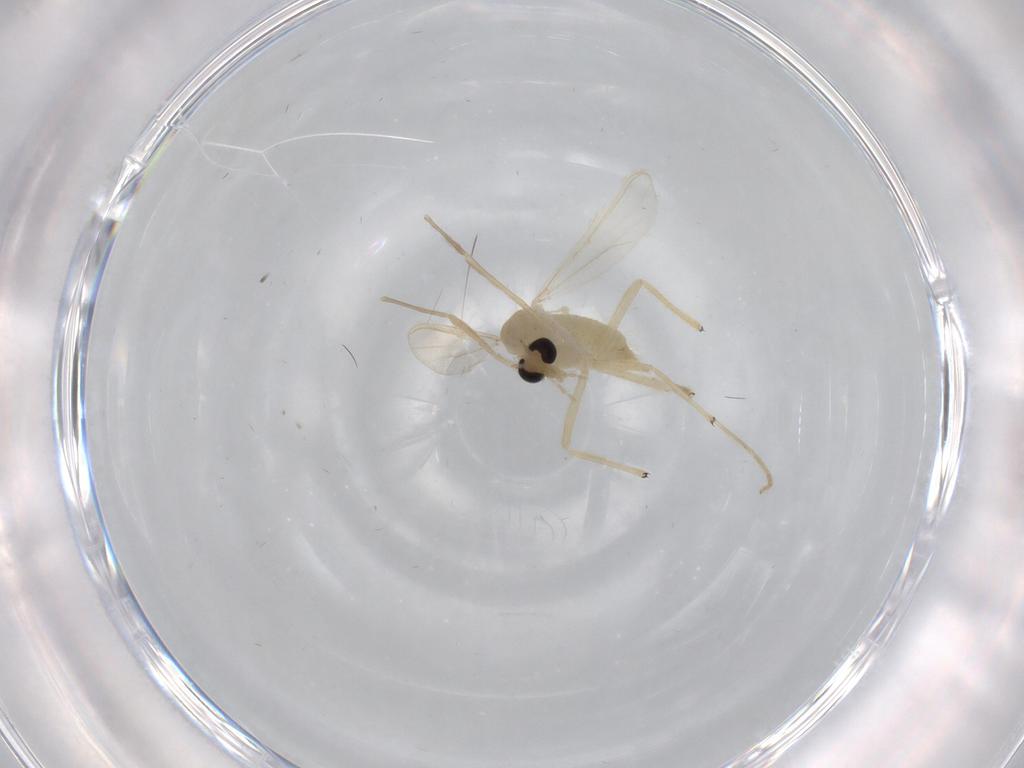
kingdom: Animalia
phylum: Arthropoda
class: Insecta
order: Diptera
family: Chironomidae
